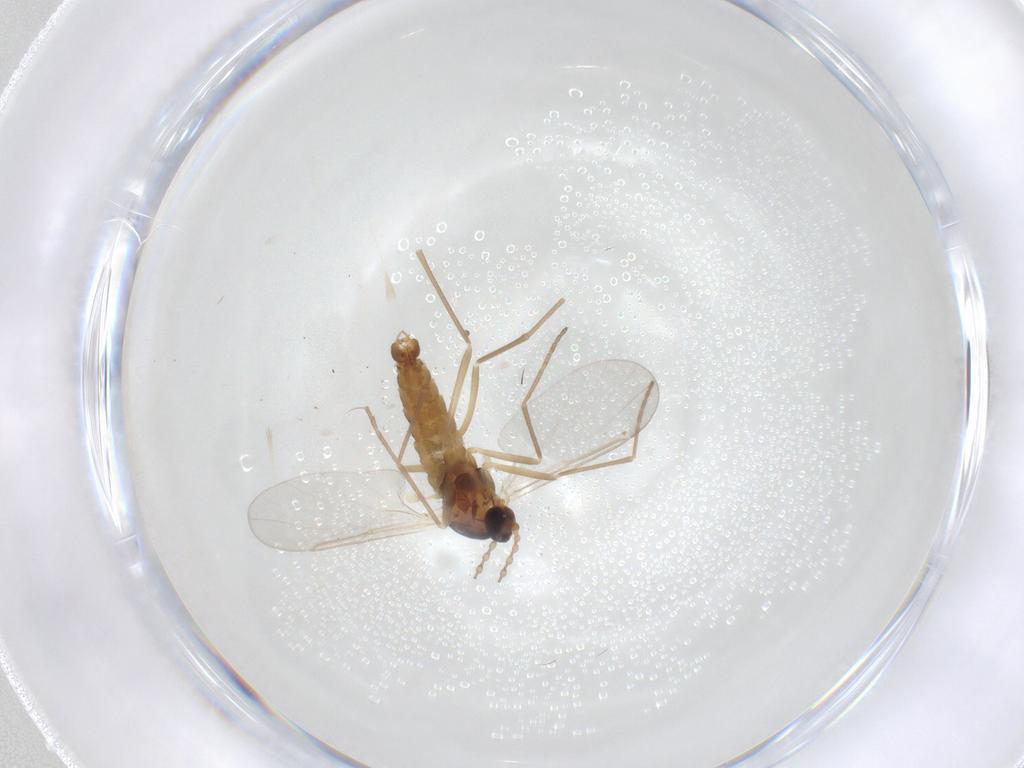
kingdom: Animalia
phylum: Arthropoda
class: Insecta
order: Diptera
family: Cecidomyiidae
